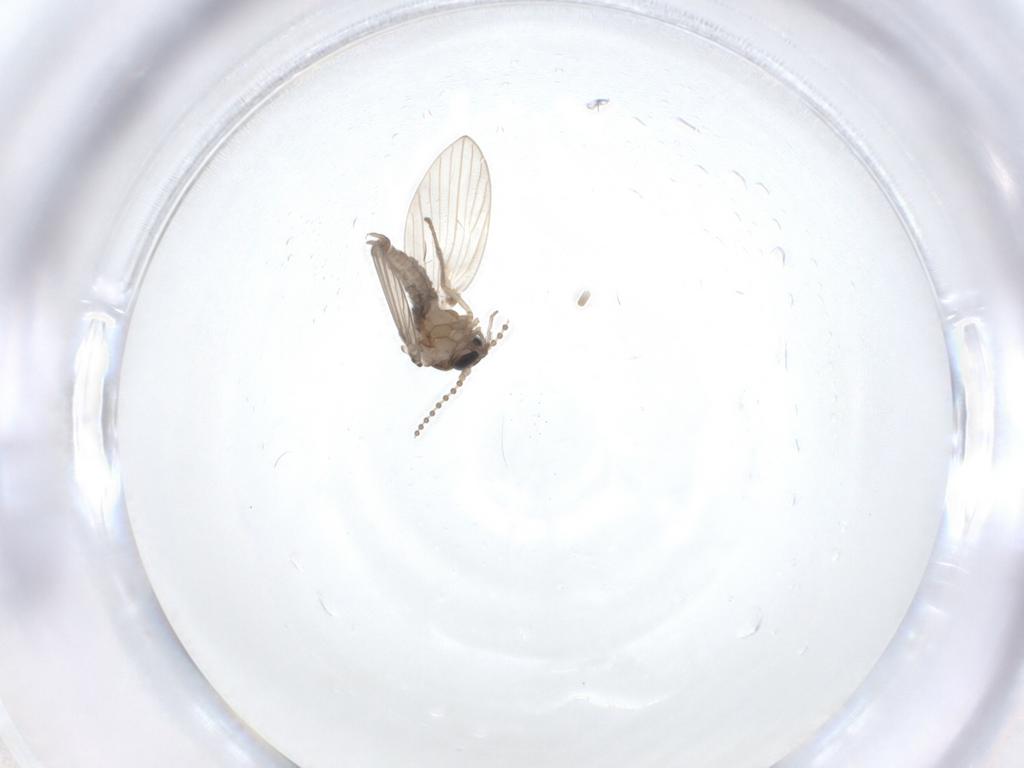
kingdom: Animalia
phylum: Arthropoda
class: Insecta
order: Diptera
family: Psychodidae
